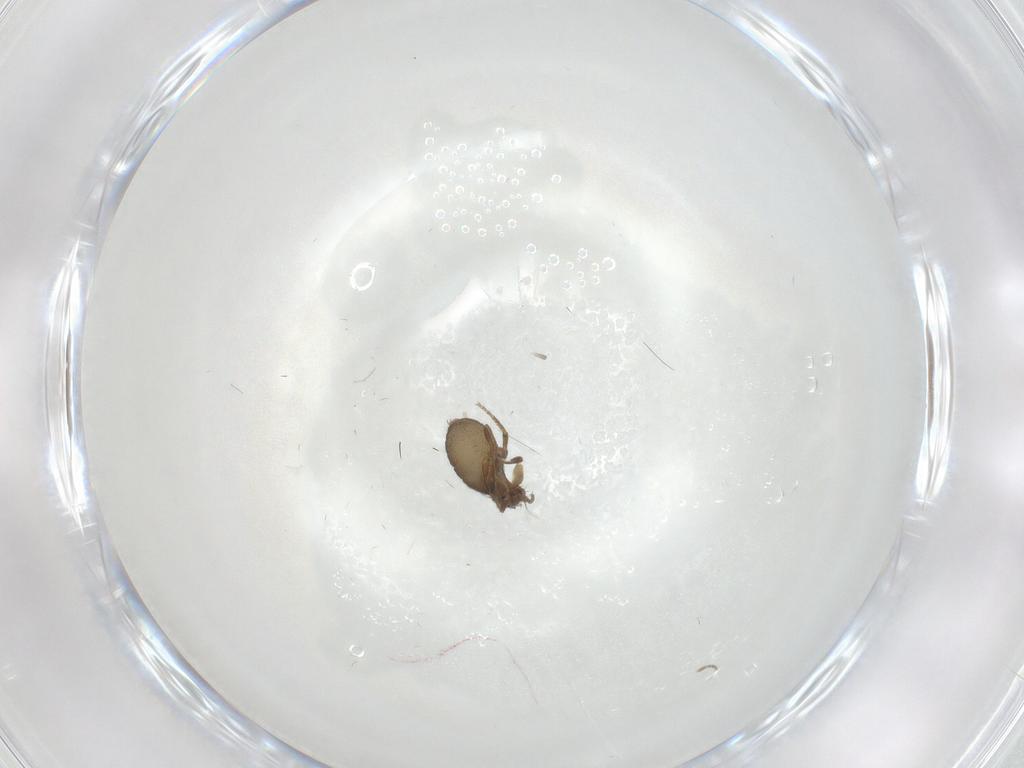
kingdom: Animalia
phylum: Arthropoda
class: Insecta
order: Diptera
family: Phoridae
